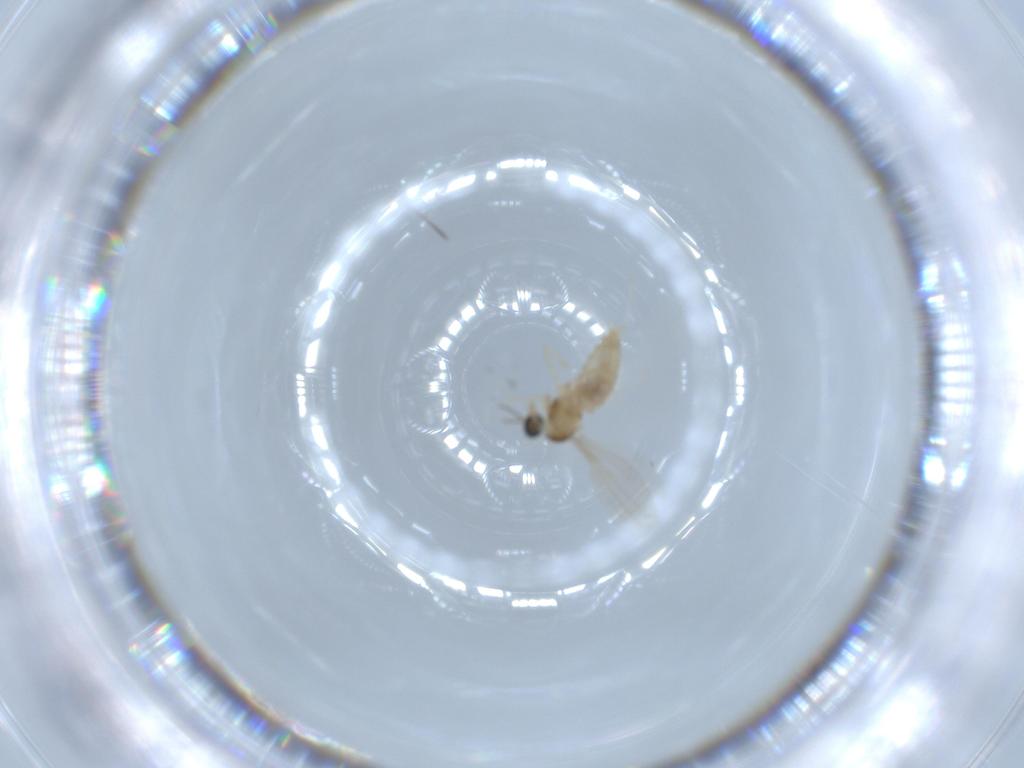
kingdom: Animalia
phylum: Arthropoda
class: Insecta
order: Diptera
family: Cecidomyiidae
